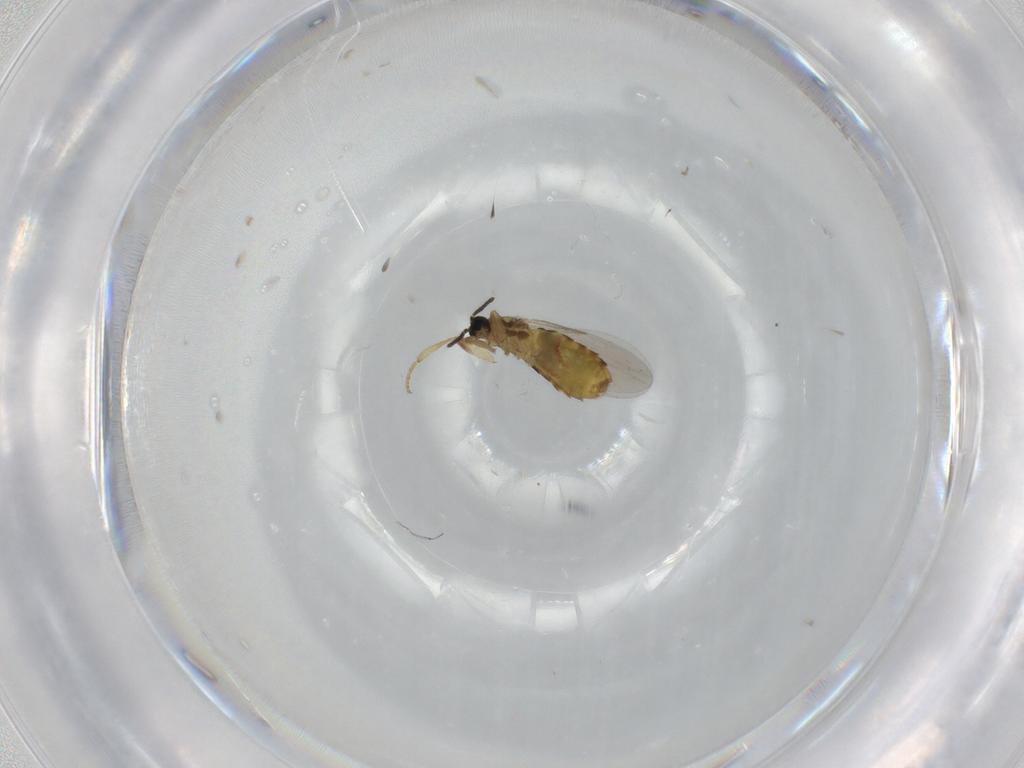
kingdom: Animalia
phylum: Arthropoda
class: Insecta
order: Diptera
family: Scatopsidae
